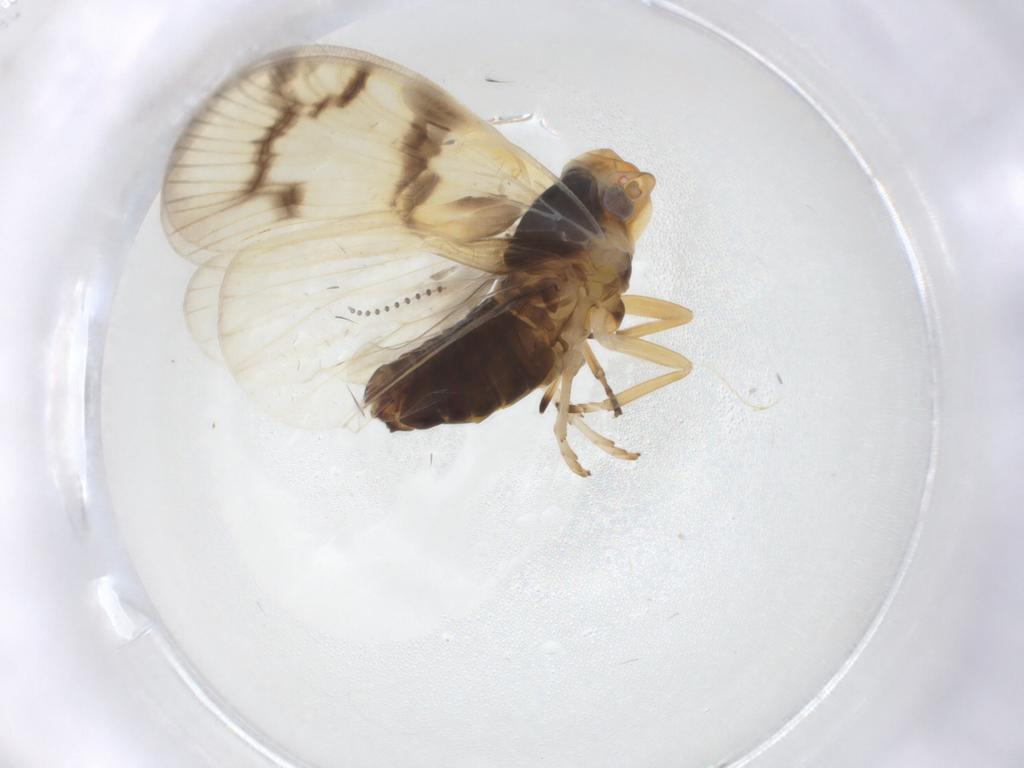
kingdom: Animalia
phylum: Arthropoda
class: Insecta
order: Hemiptera
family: Cixiidae
